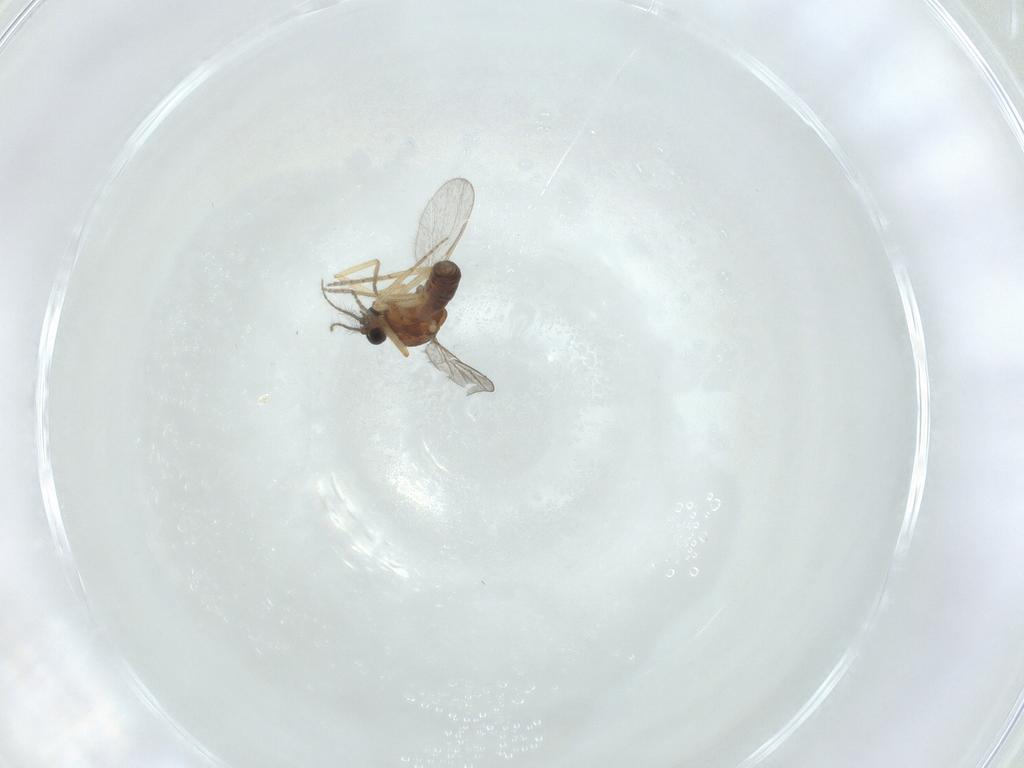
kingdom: Animalia
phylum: Arthropoda
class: Insecta
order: Diptera
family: Ceratopogonidae
